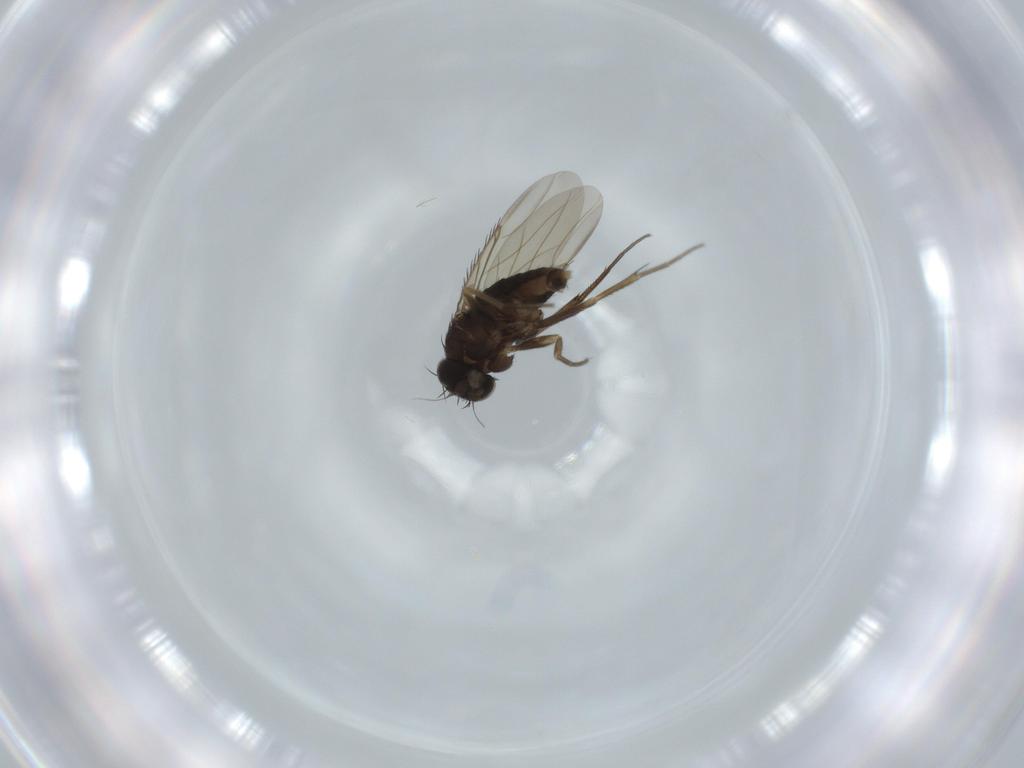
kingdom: Animalia
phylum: Arthropoda
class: Insecta
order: Diptera
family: Phoridae
